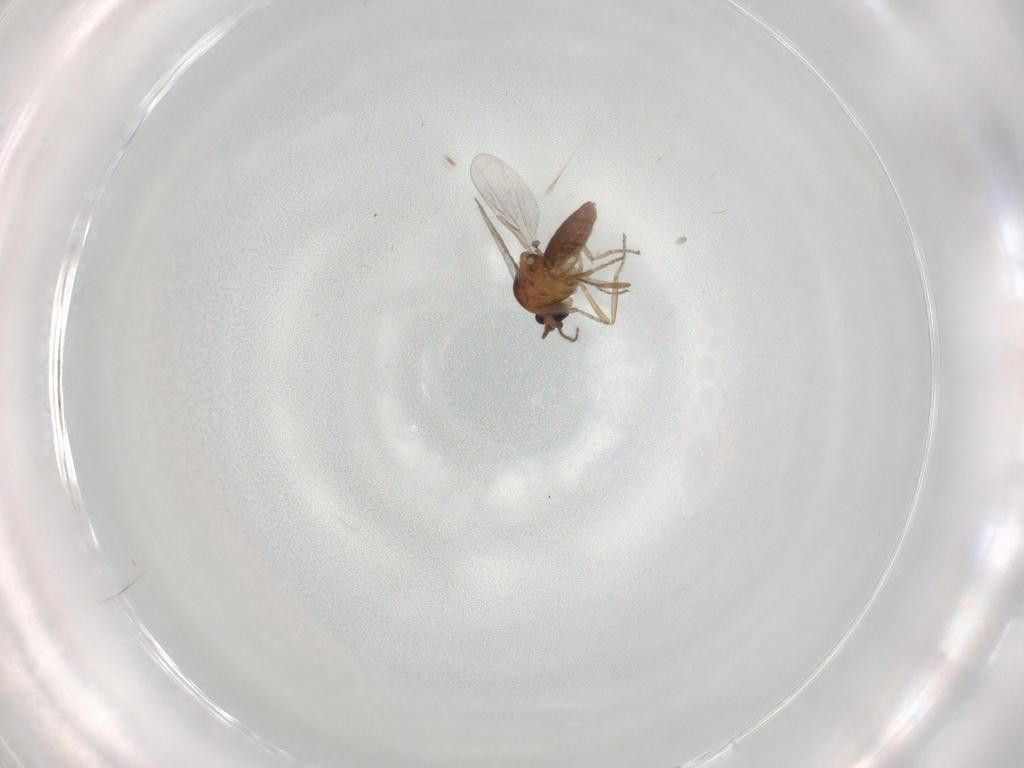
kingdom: Animalia
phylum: Arthropoda
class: Insecta
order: Diptera
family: Ceratopogonidae
